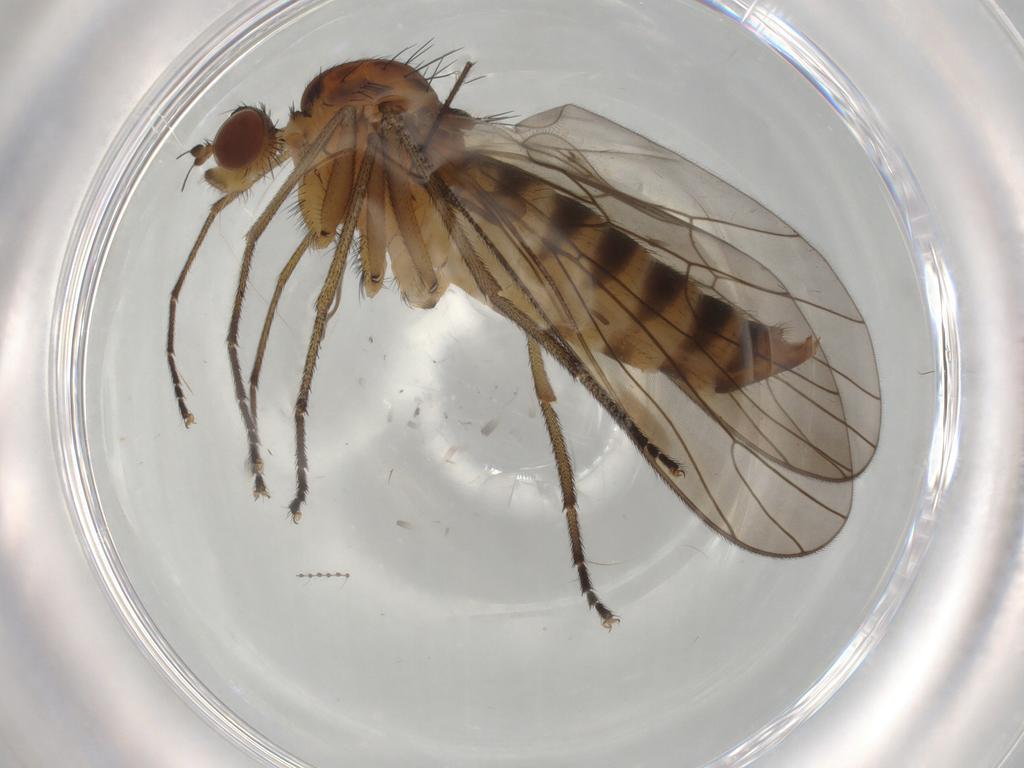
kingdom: Animalia
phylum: Arthropoda
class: Insecta
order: Diptera
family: Brachystomatidae
